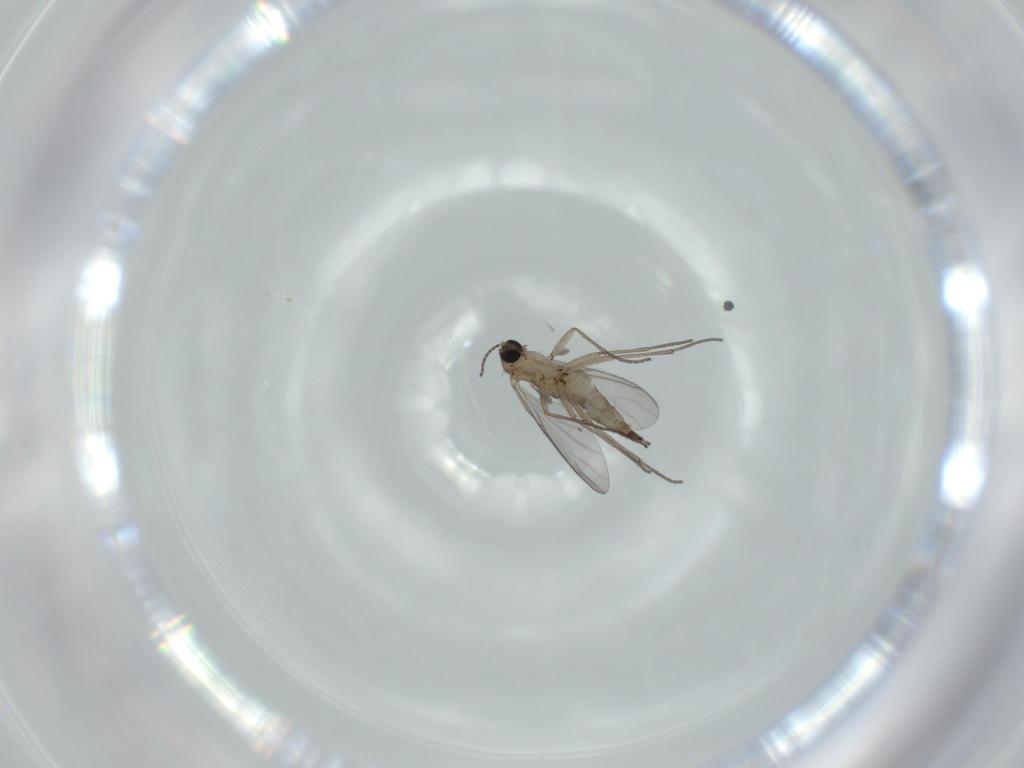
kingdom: Animalia
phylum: Arthropoda
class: Insecta
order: Diptera
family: Sciaridae
